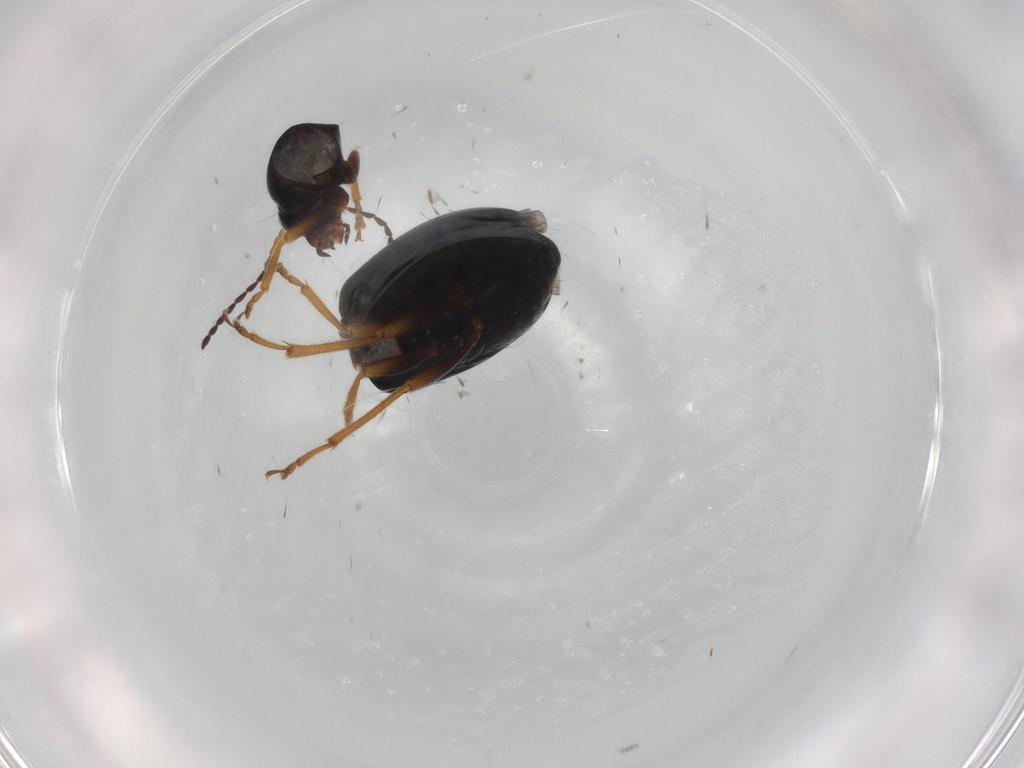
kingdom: Animalia
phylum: Arthropoda
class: Insecta
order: Coleoptera
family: Chrysomelidae
